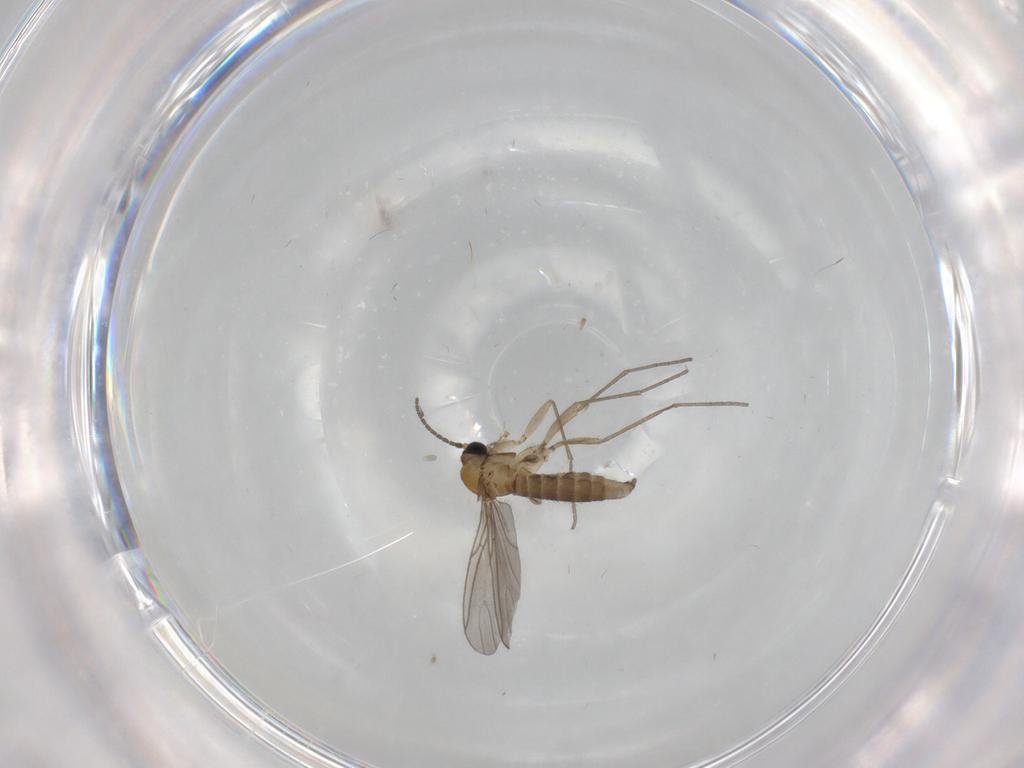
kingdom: Animalia
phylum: Arthropoda
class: Insecta
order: Diptera
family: Sciaridae
